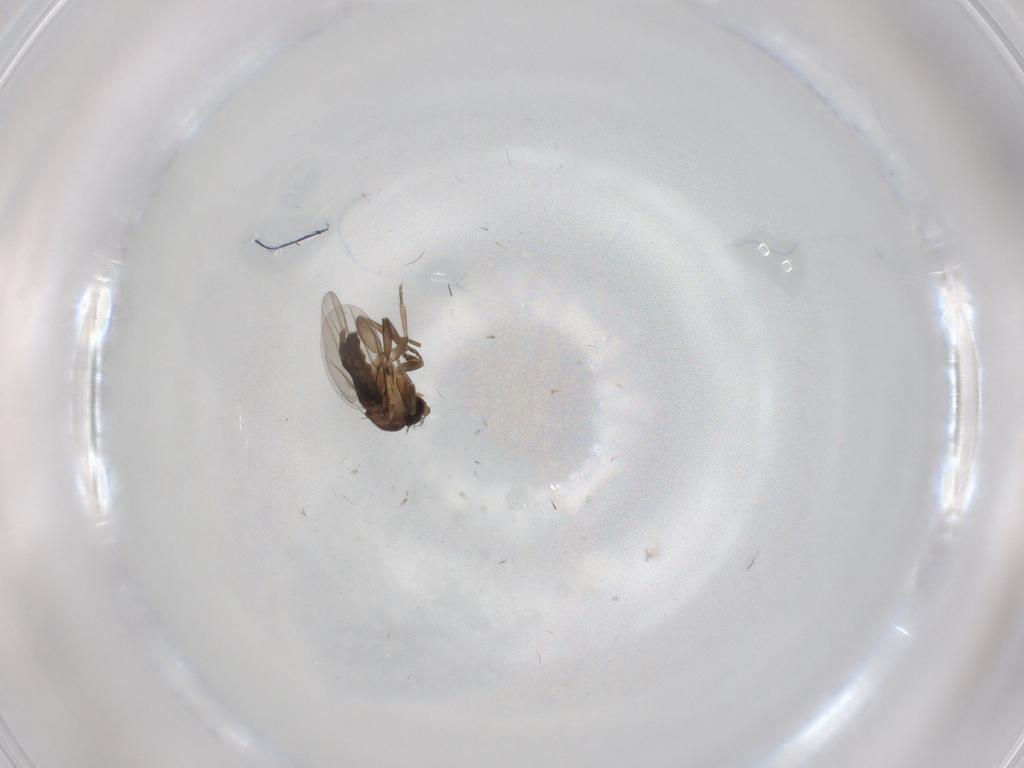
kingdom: Animalia
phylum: Arthropoda
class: Insecta
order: Diptera
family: Phoridae
